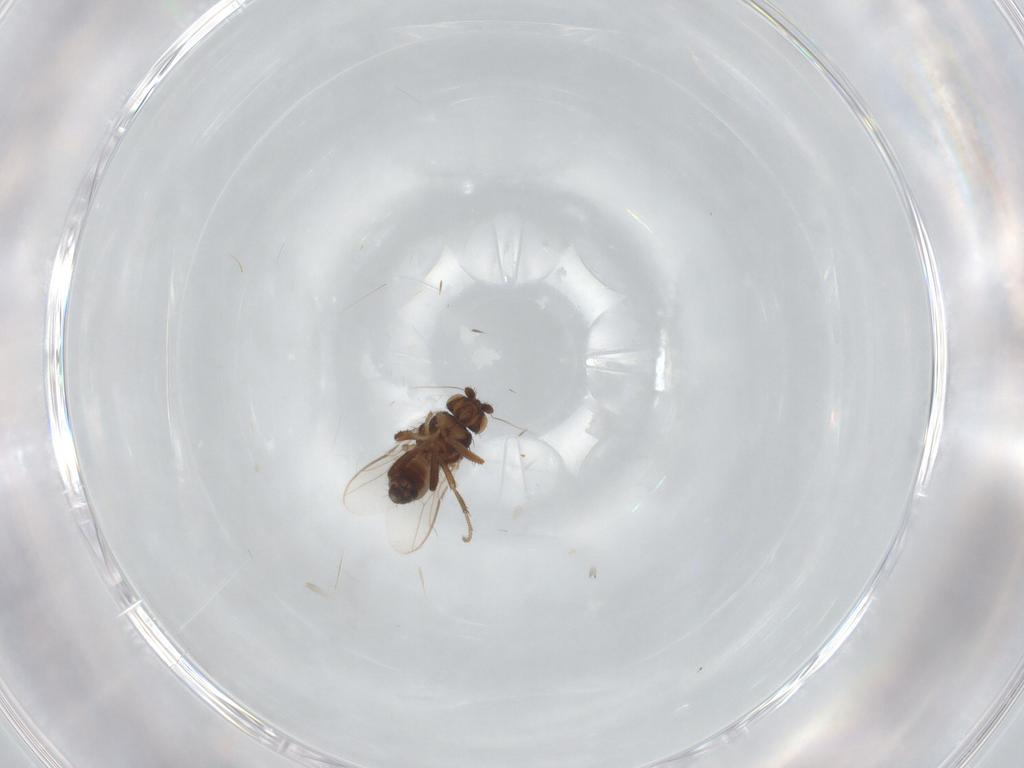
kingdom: Animalia
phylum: Arthropoda
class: Insecta
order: Diptera
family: Sphaeroceridae
